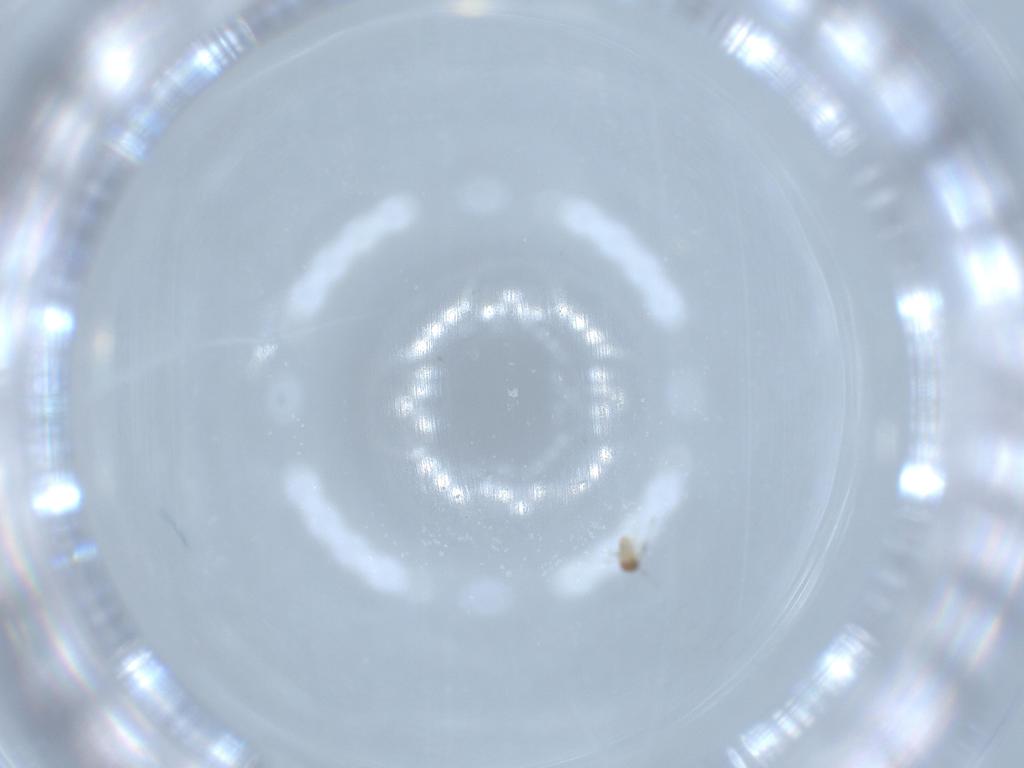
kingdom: Animalia
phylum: Arthropoda
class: Insecta
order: Hymenoptera
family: Trichogrammatidae
